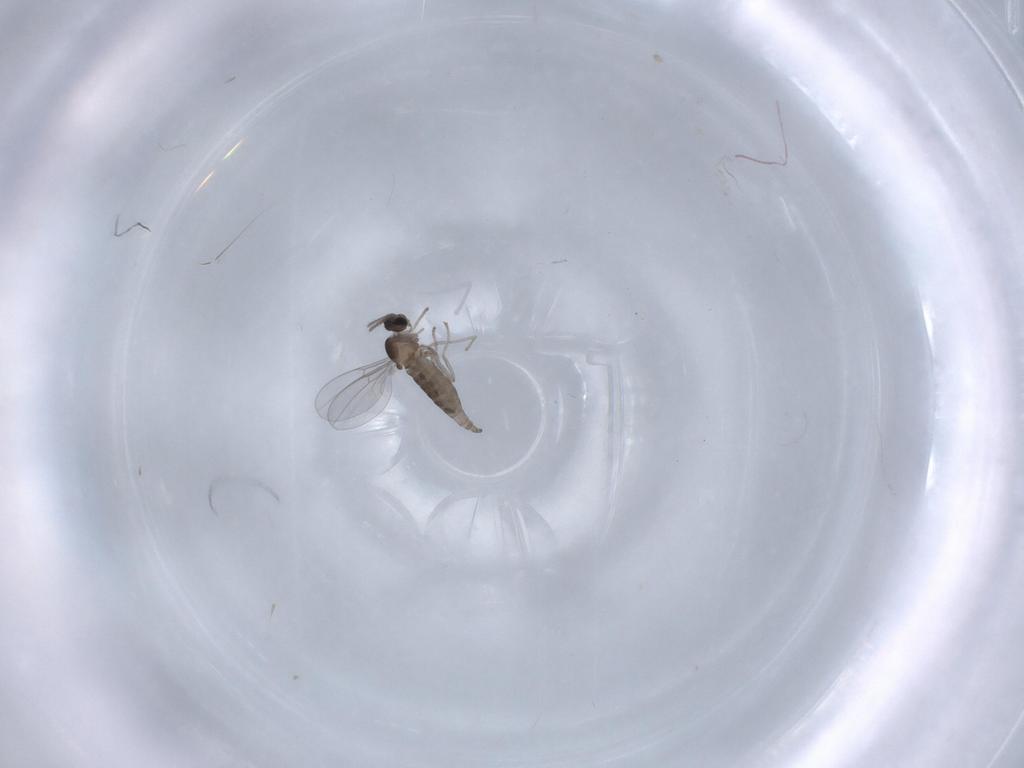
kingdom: Animalia
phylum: Arthropoda
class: Insecta
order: Diptera
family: Cecidomyiidae
